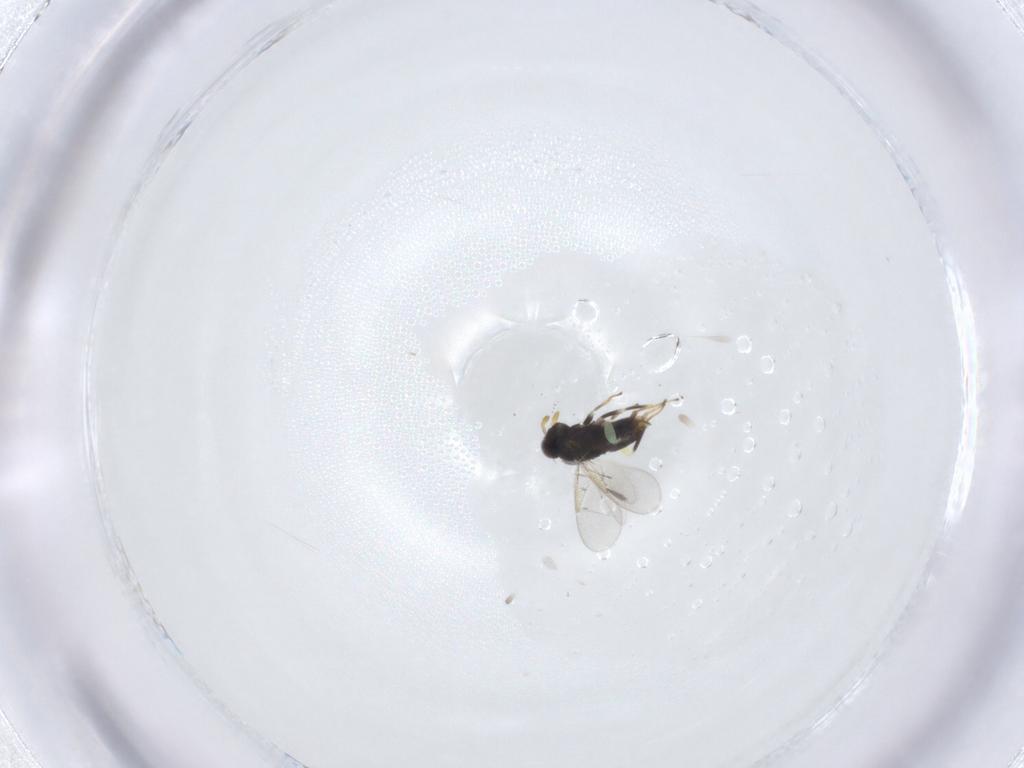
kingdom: Animalia
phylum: Arthropoda
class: Insecta
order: Hymenoptera
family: Aphelinidae
